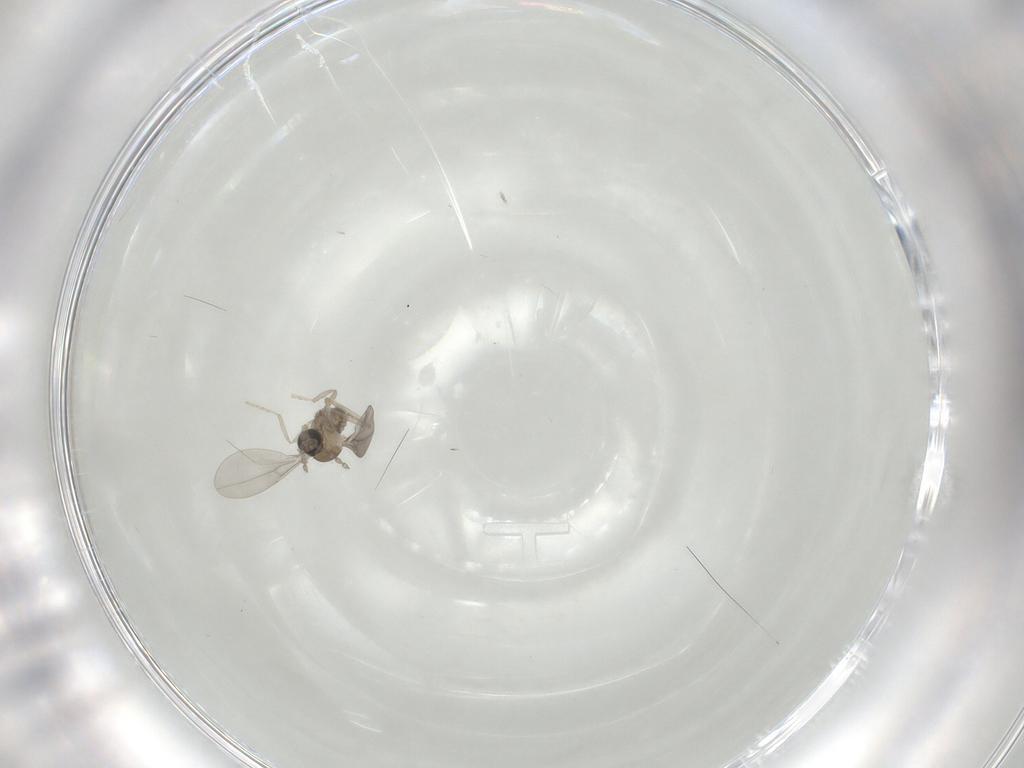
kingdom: Animalia
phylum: Arthropoda
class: Insecta
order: Diptera
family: Cecidomyiidae
